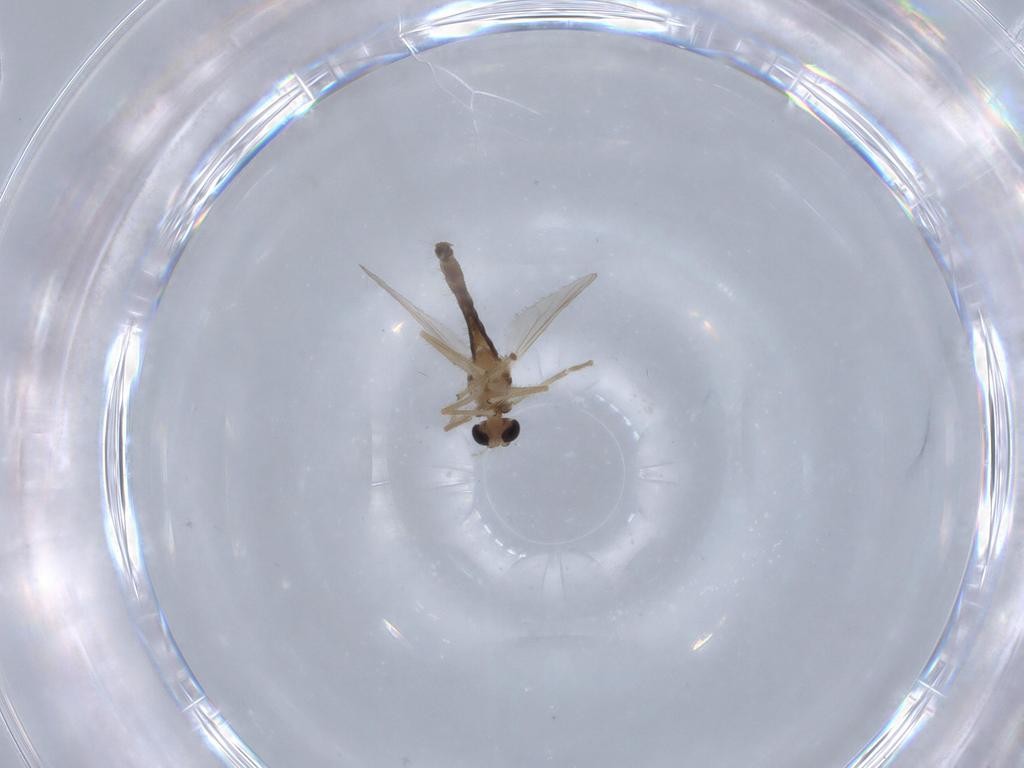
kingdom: Animalia
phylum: Arthropoda
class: Insecta
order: Diptera
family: Chironomidae
